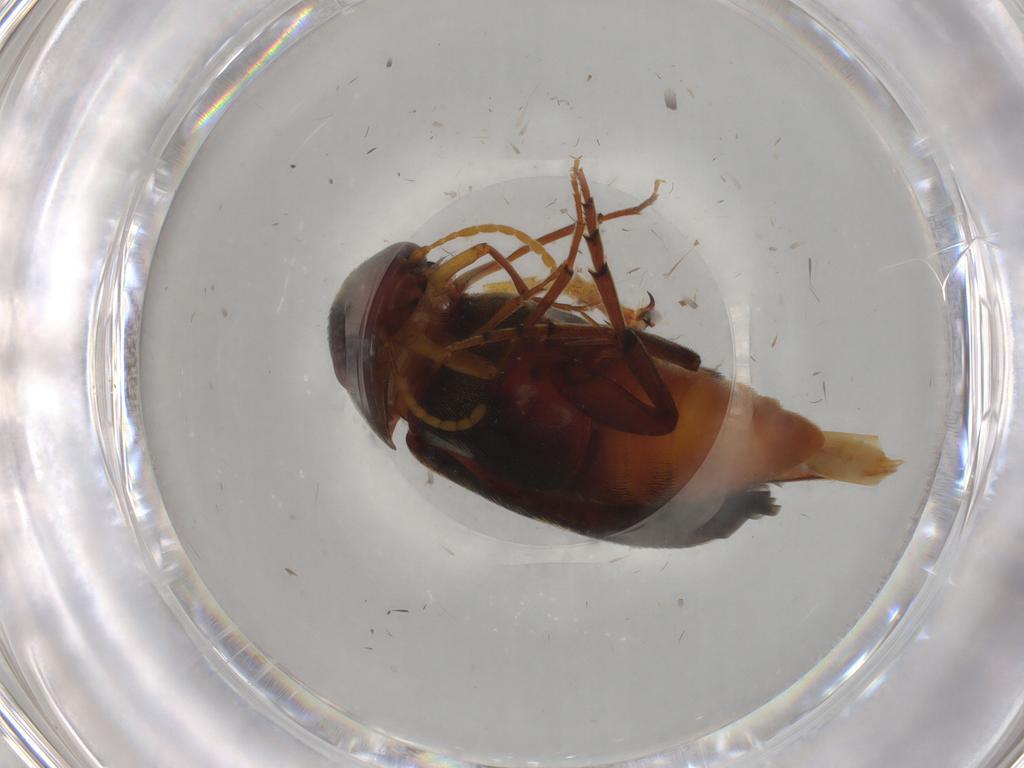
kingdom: Animalia
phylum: Arthropoda
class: Insecta
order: Coleoptera
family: Mordellidae
